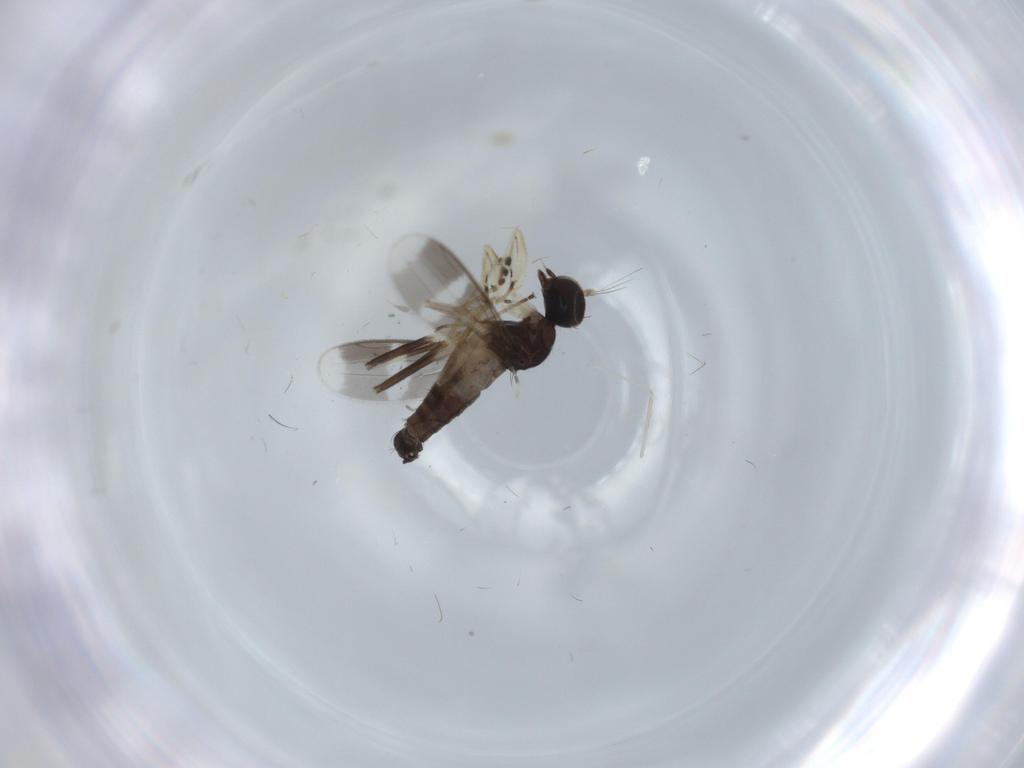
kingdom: Animalia
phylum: Arthropoda
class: Insecta
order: Diptera
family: Hybotidae
